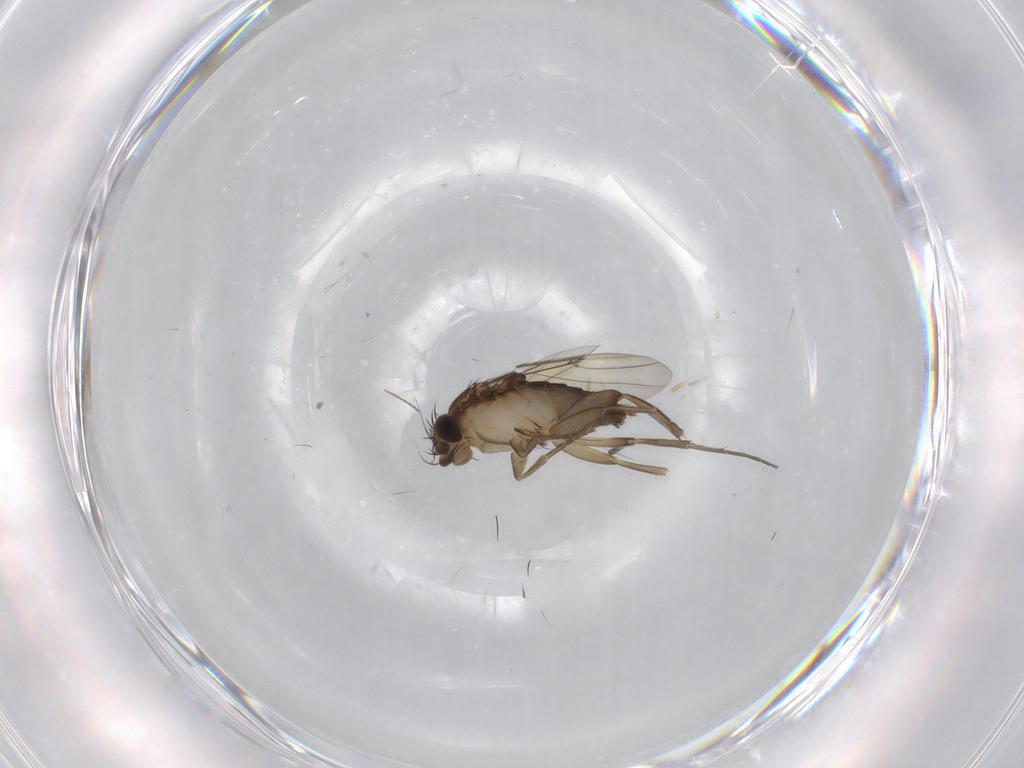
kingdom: Animalia
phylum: Arthropoda
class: Insecta
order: Diptera
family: Phoridae
